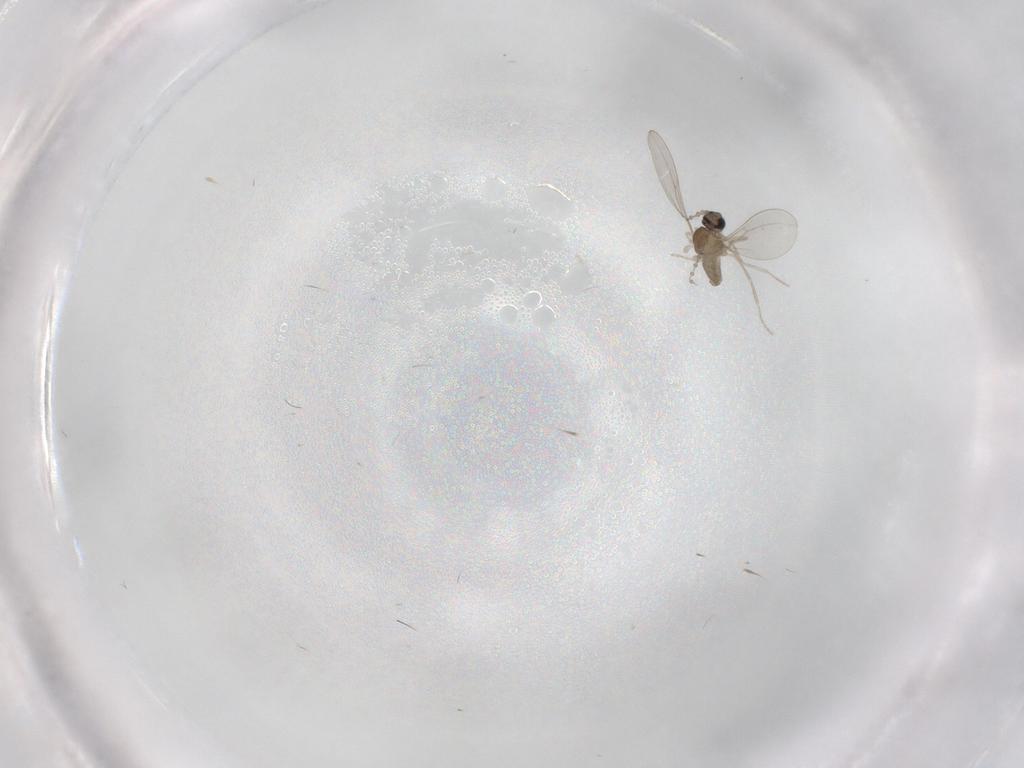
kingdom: Animalia
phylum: Arthropoda
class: Insecta
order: Diptera
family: Cecidomyiidae
